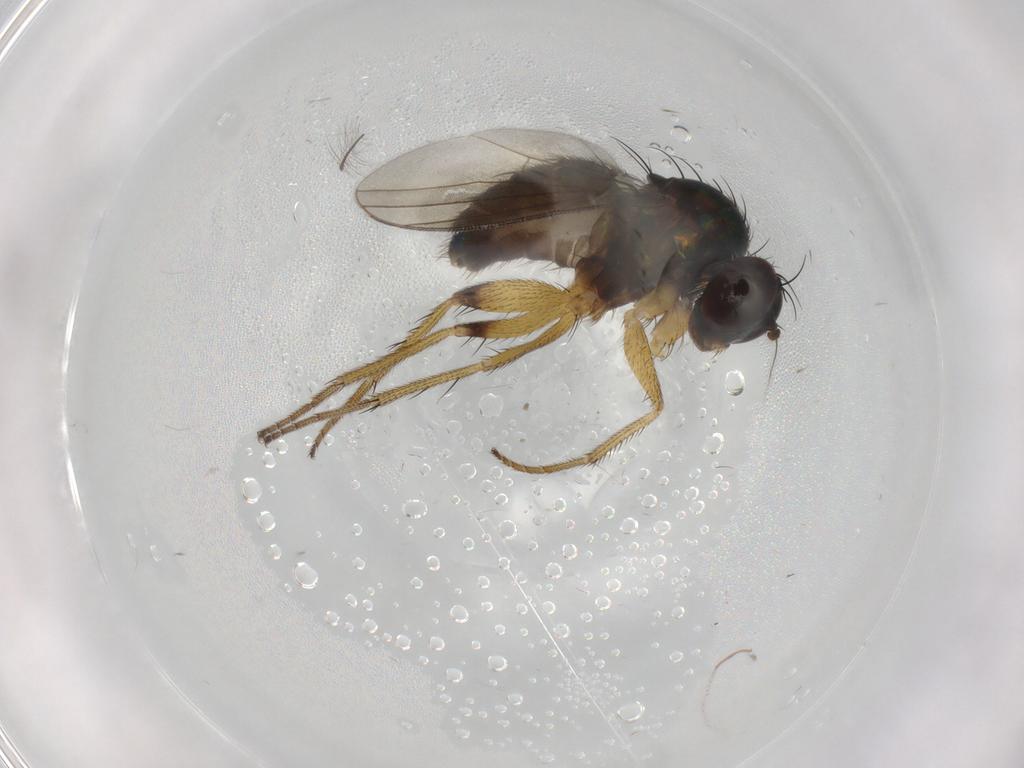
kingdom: Animalia
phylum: Arthropoda
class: Insecta
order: Diptera
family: Dolichopodidae
